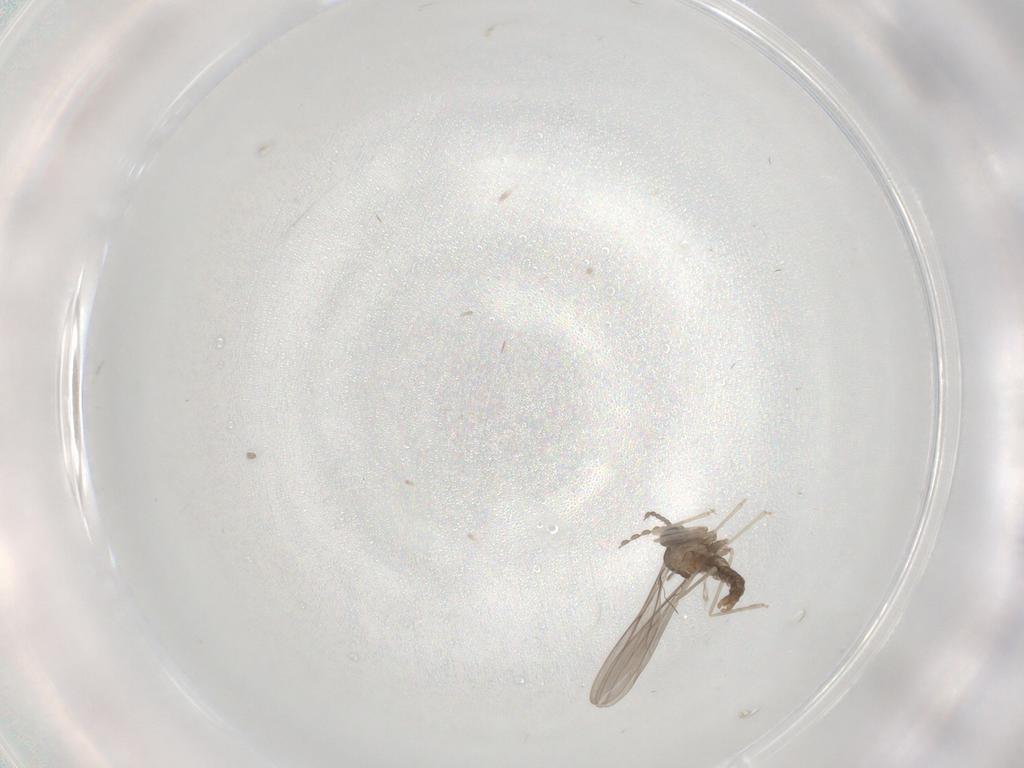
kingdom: Animalia
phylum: Arthropoda
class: Insecta
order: Diptera
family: Cecidomyiidae
